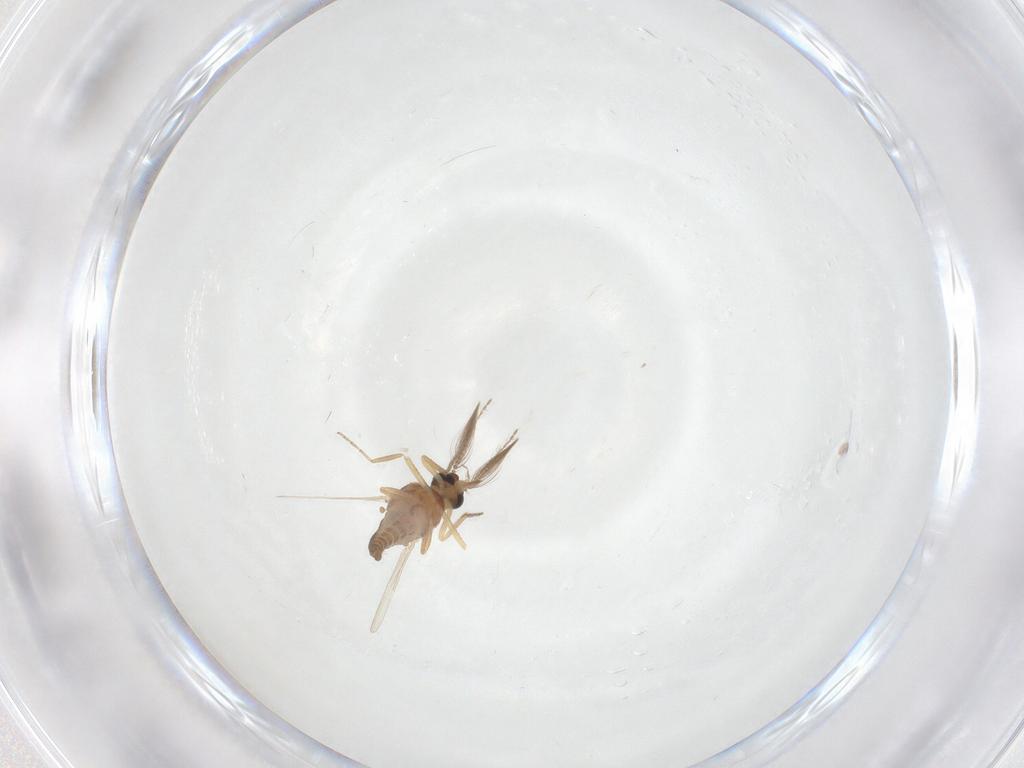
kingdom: Animalia
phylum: Arthropoda
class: Insecta
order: Diptera
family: Ceratopogonidae
